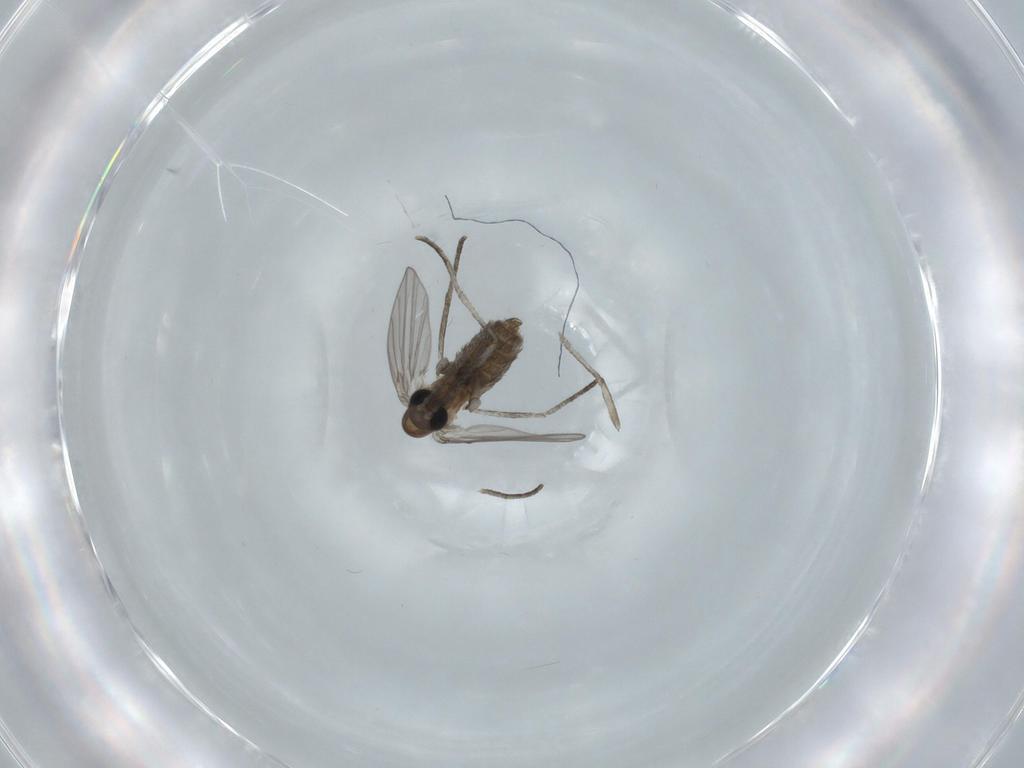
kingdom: Animalia
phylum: Arthropoda
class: Insecta
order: Diptera
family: Psychodidae
